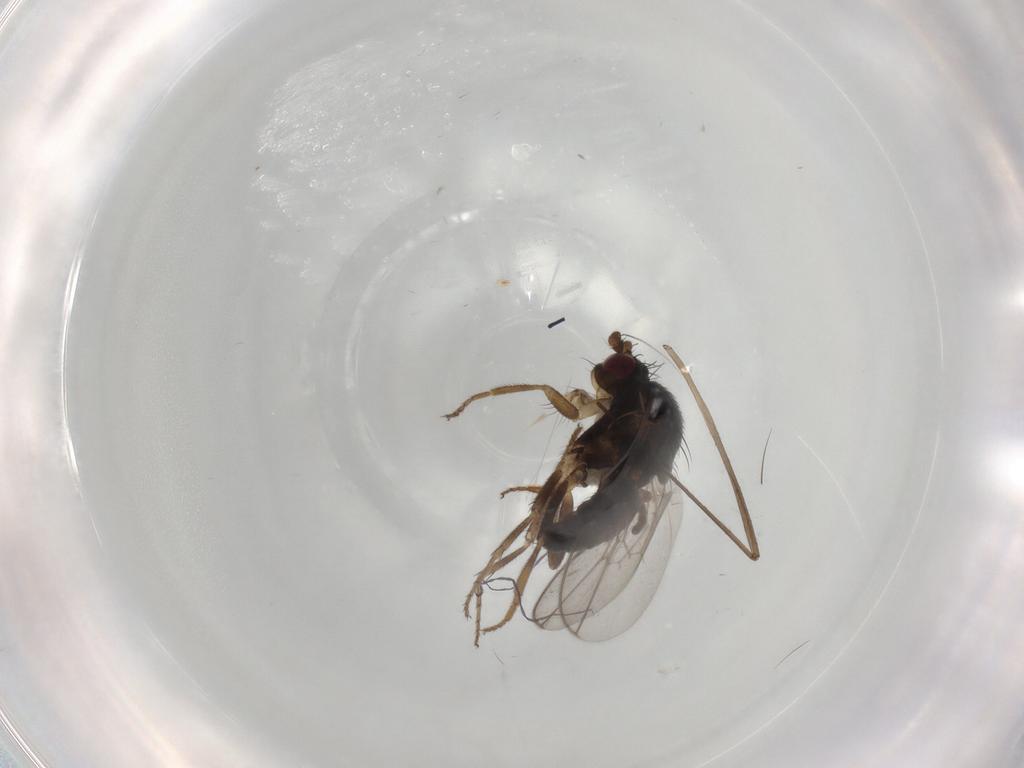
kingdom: Animalia
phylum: Arthropoda
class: Insecta
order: Diptera
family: Sphaeroceridae
